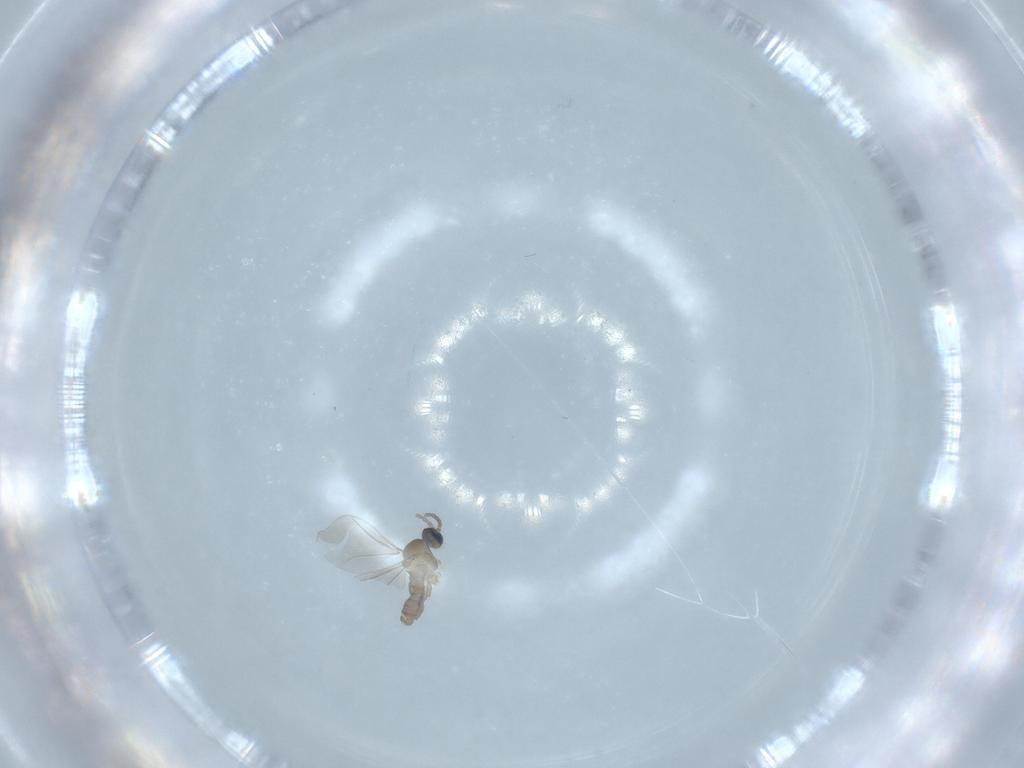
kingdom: Animalia
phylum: Arthropoda
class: Insecta
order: Diptera
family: Cecidomyiidae
